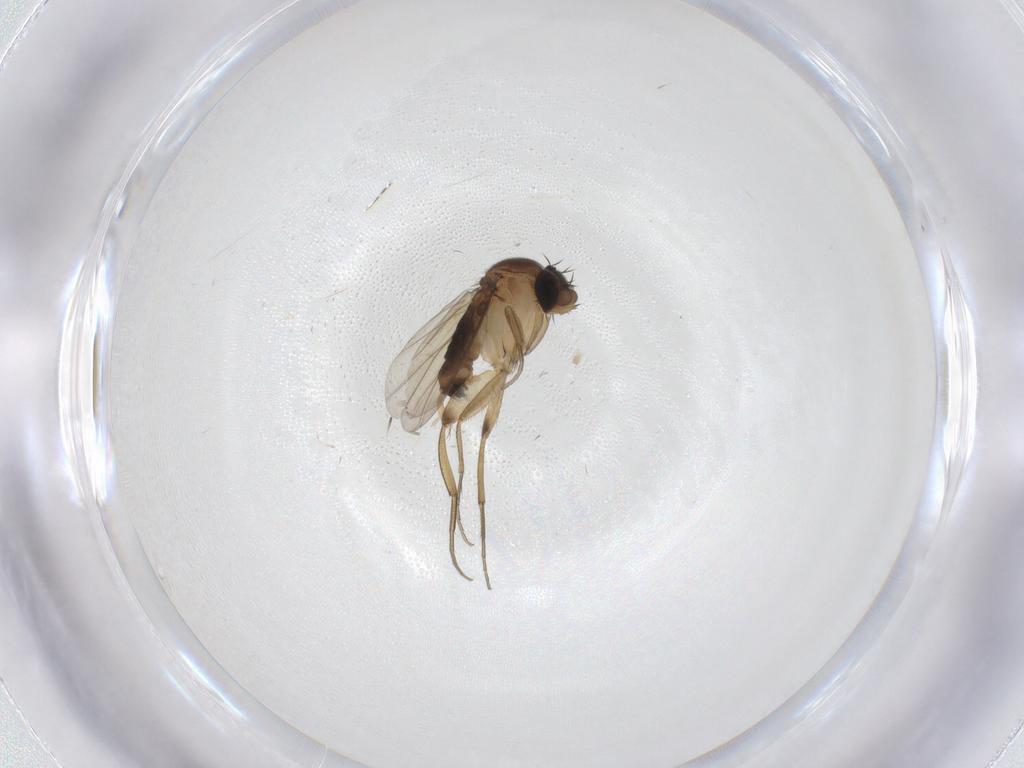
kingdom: Animalia
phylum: Arthropoda
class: Insecta
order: Diptera
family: Phoridae
